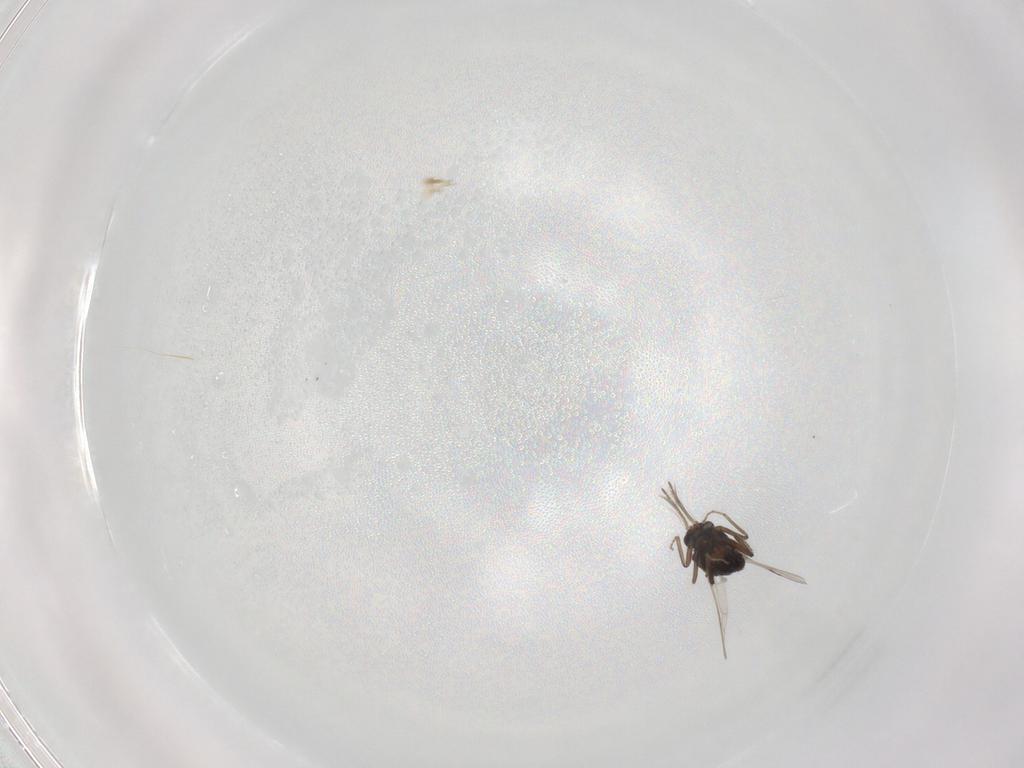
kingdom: Animalia
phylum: Arthropoda
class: Insecta
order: Diptera
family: Ceratopogonidae
